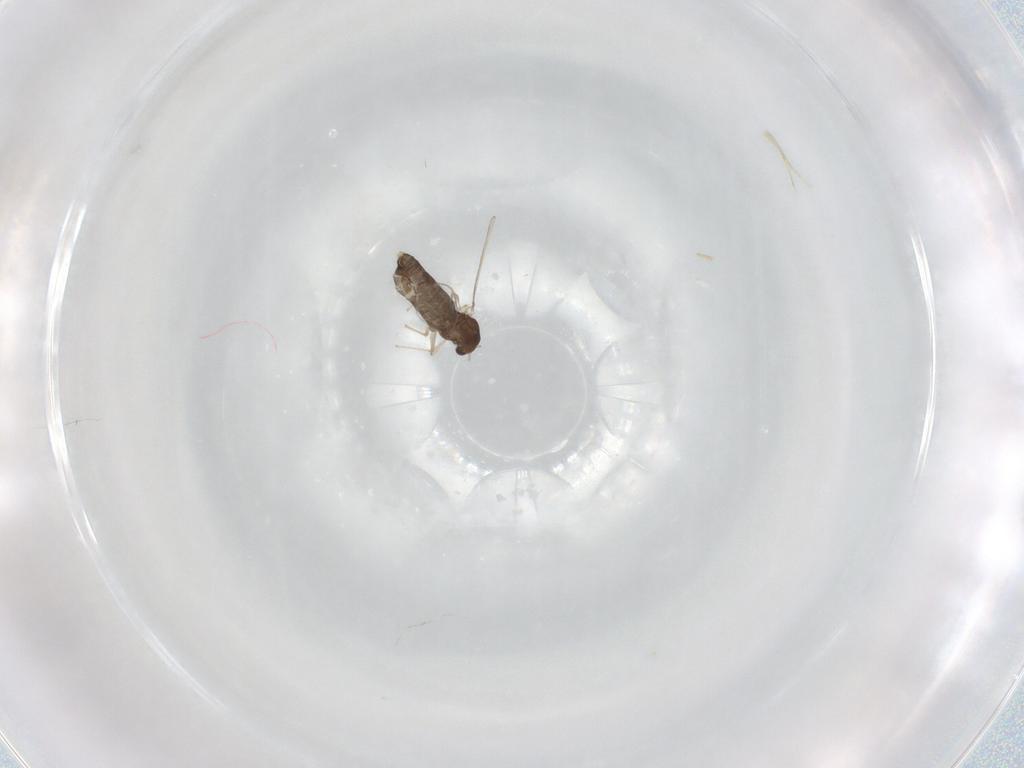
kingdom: Animalia
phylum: Arthropoda
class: Insecta
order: Diptera
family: Chironomidae
